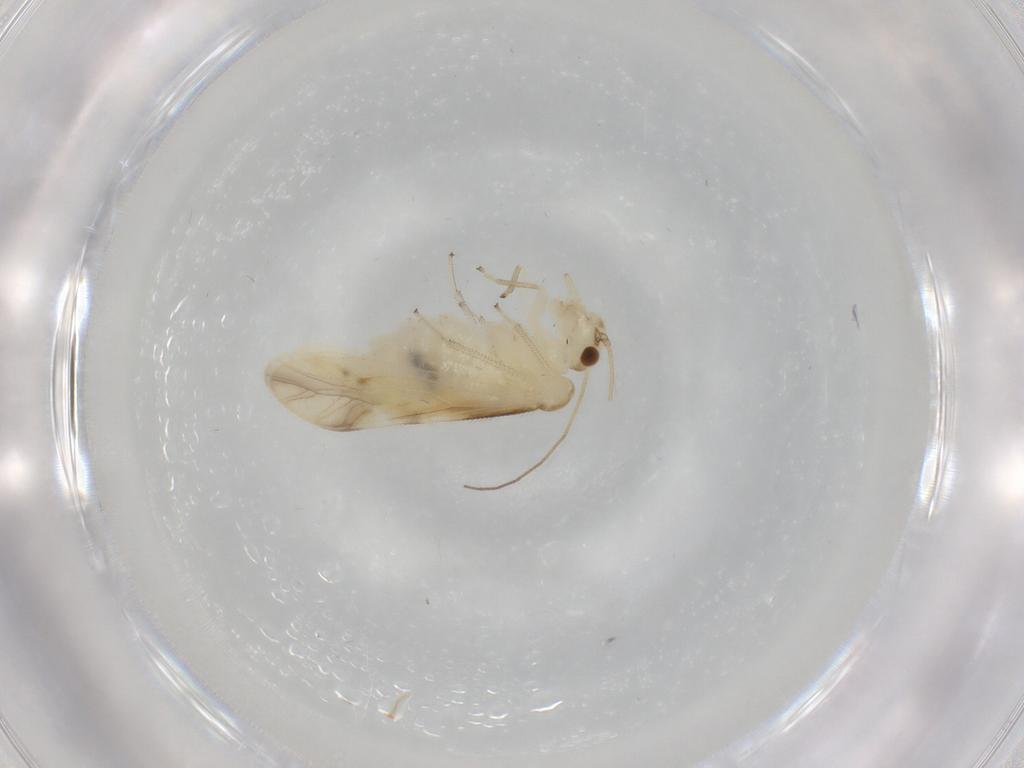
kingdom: Animalia
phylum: Arthropoda
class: Insecta
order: Psocodea
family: Caeciliusidae
